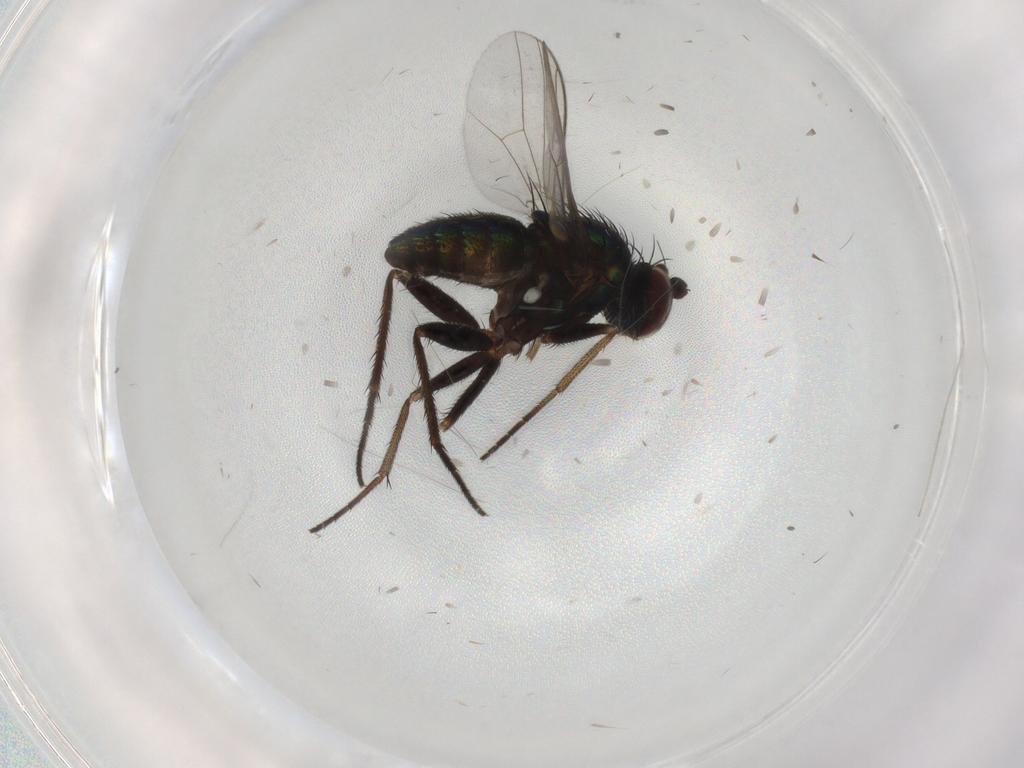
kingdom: Animalia
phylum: Arthropoda
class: Insecta
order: Diptera
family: Dolichopodidae
